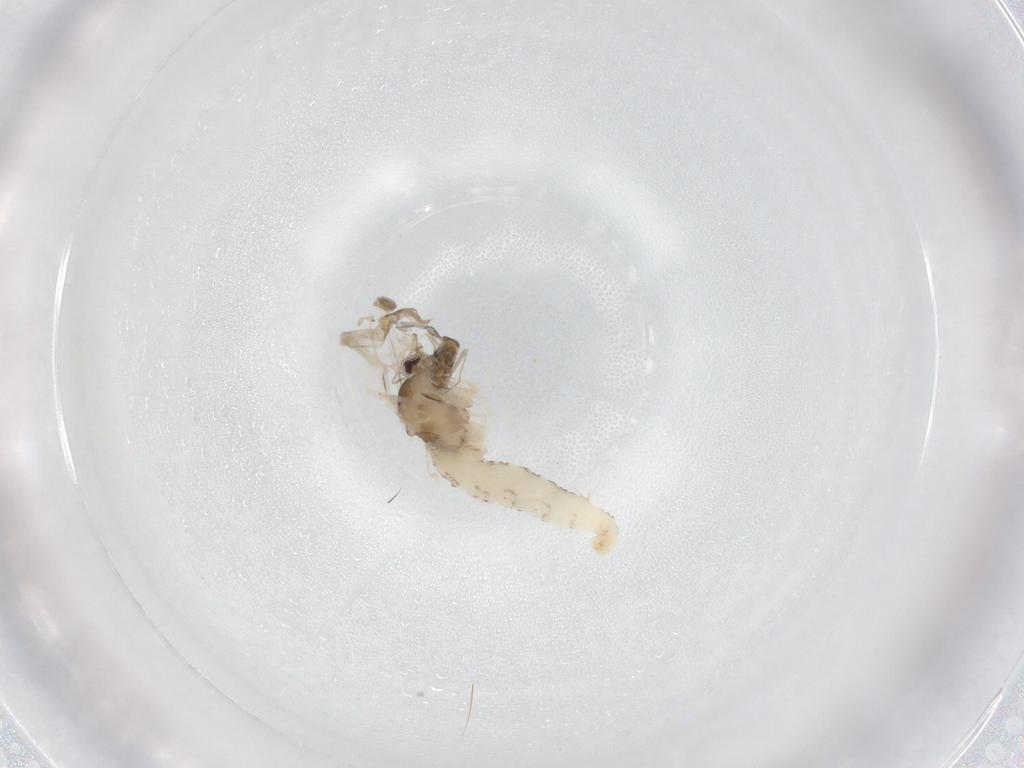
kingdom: Animalia
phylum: Arthropoda
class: Insecta
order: Diptera
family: Cecidomyiidae
